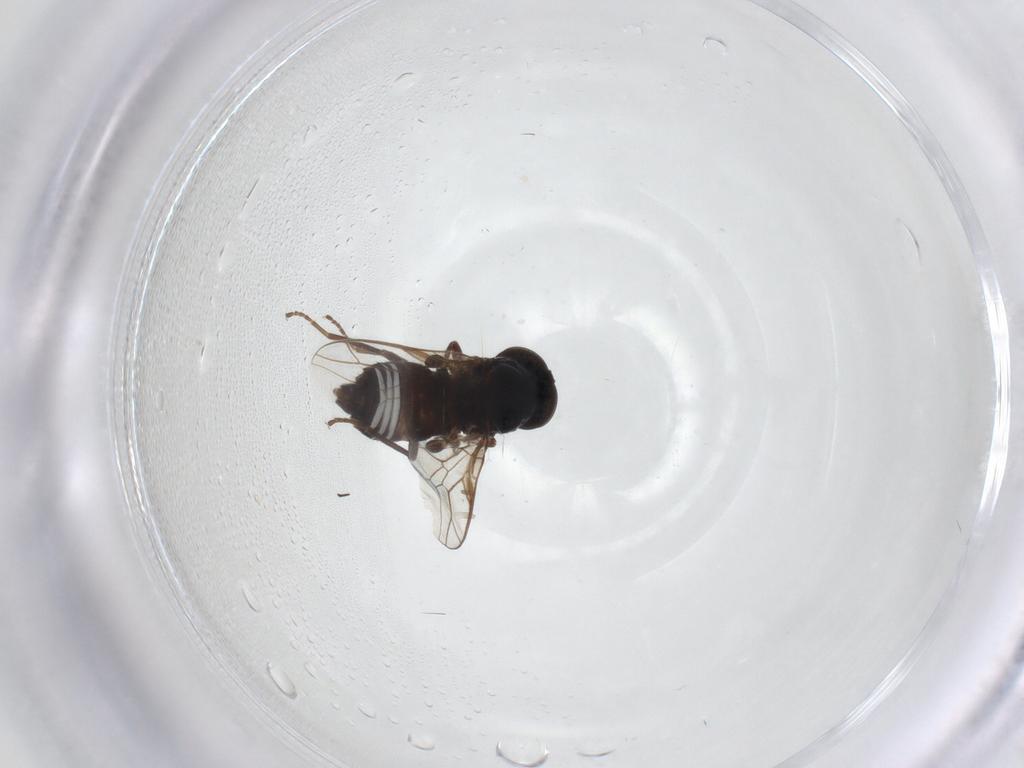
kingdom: Animalia
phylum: Arthropoda
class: Insecta
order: Diptera
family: Scenopinidae
